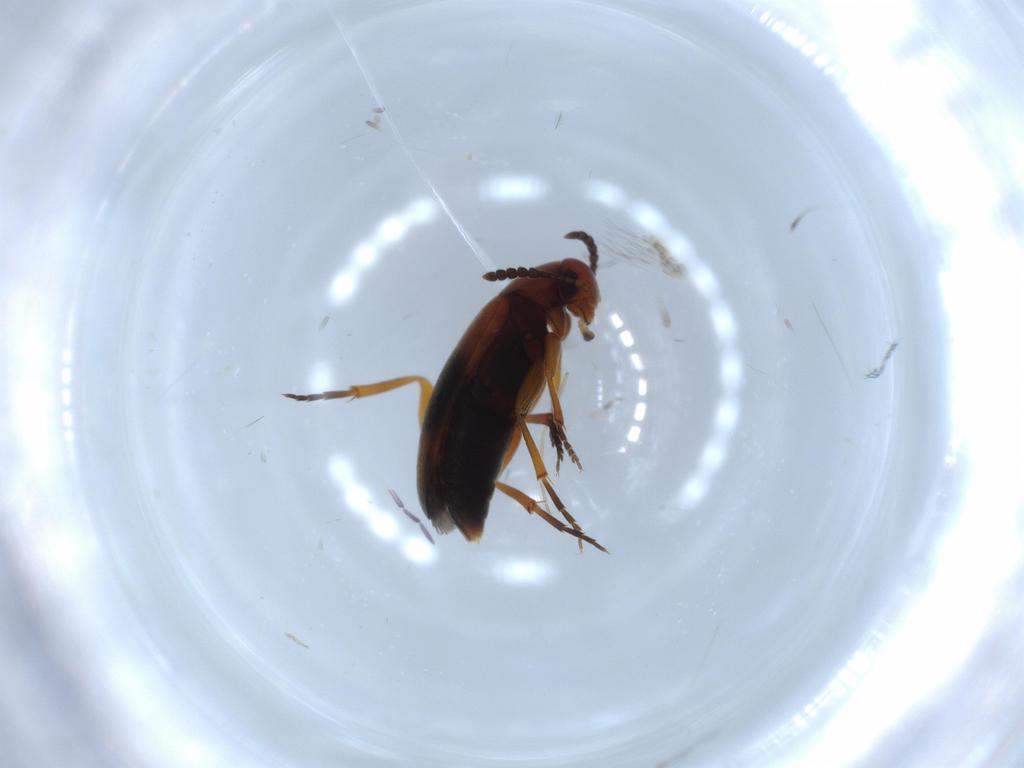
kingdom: Animalia
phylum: Arthropoda
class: Insecta
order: Coleoptera
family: Scraptiidae
